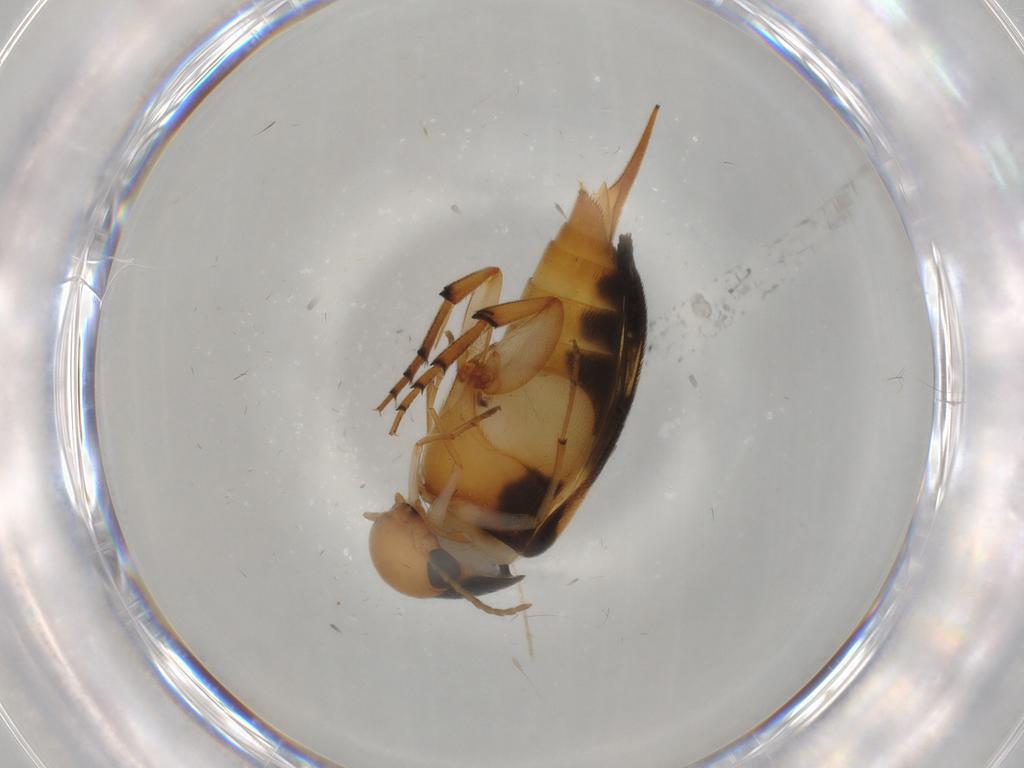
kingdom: Animalia
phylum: Arthropoda
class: Insecta
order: Coleoptera
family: Mordellidae
